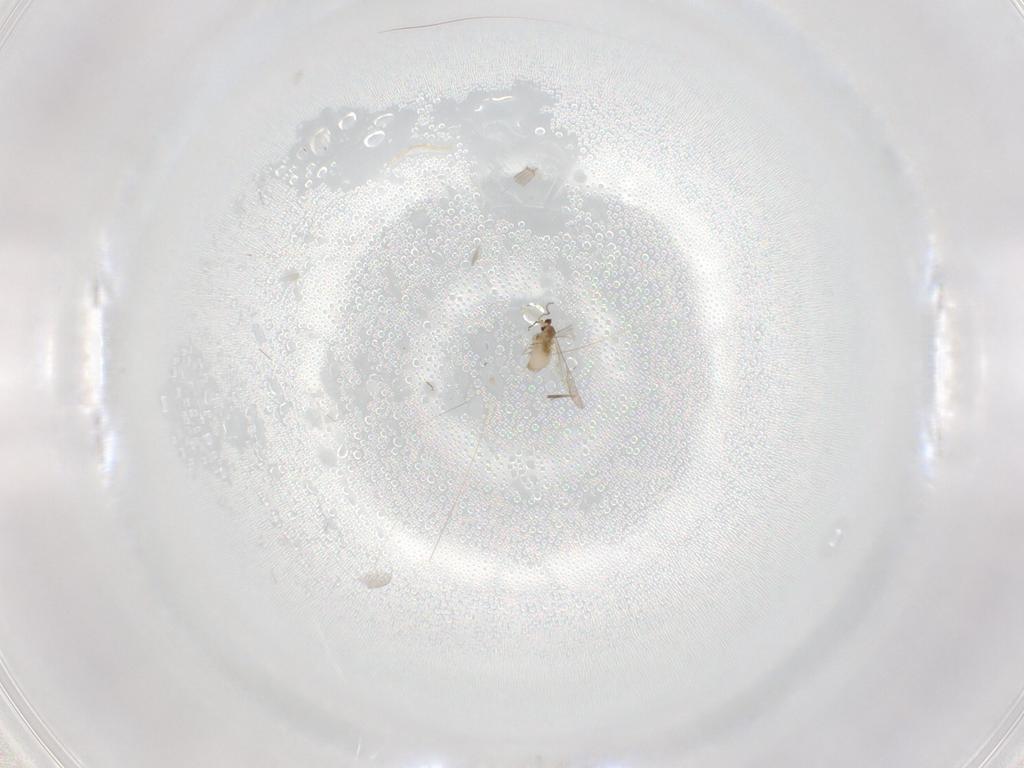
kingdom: Animalia
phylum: Arthropoda
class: Insecta
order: Diptera
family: Cecidomyiidae
